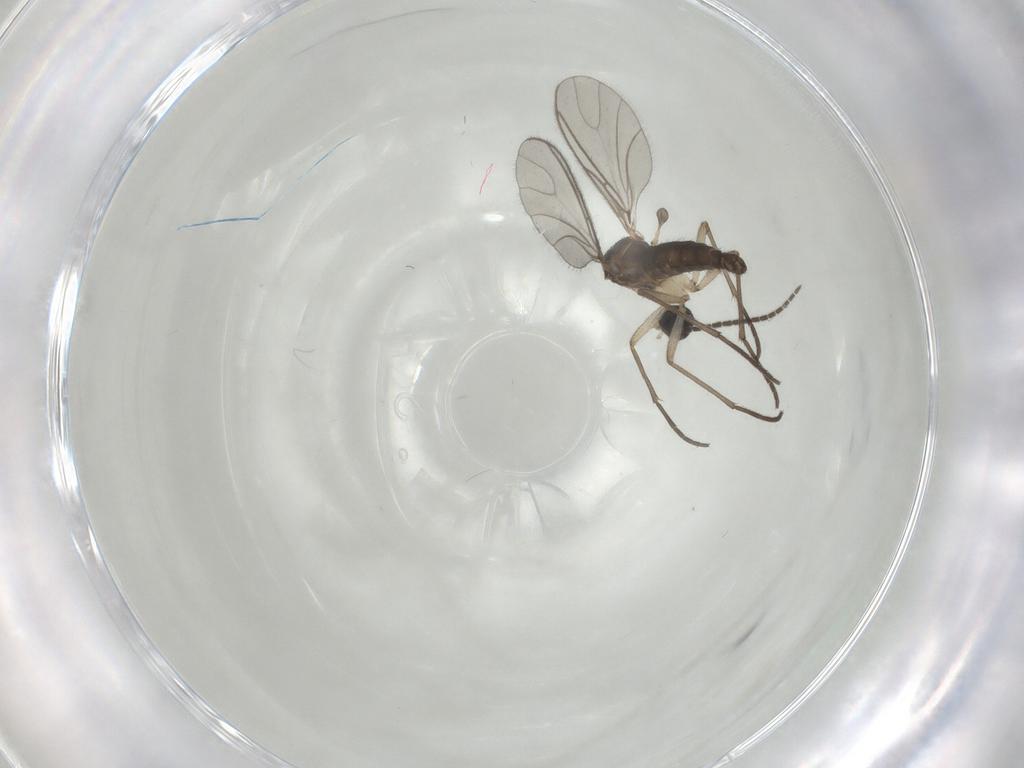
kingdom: Animalia
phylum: Arthropoda
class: Insecta
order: Diptera
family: Sciaridae
